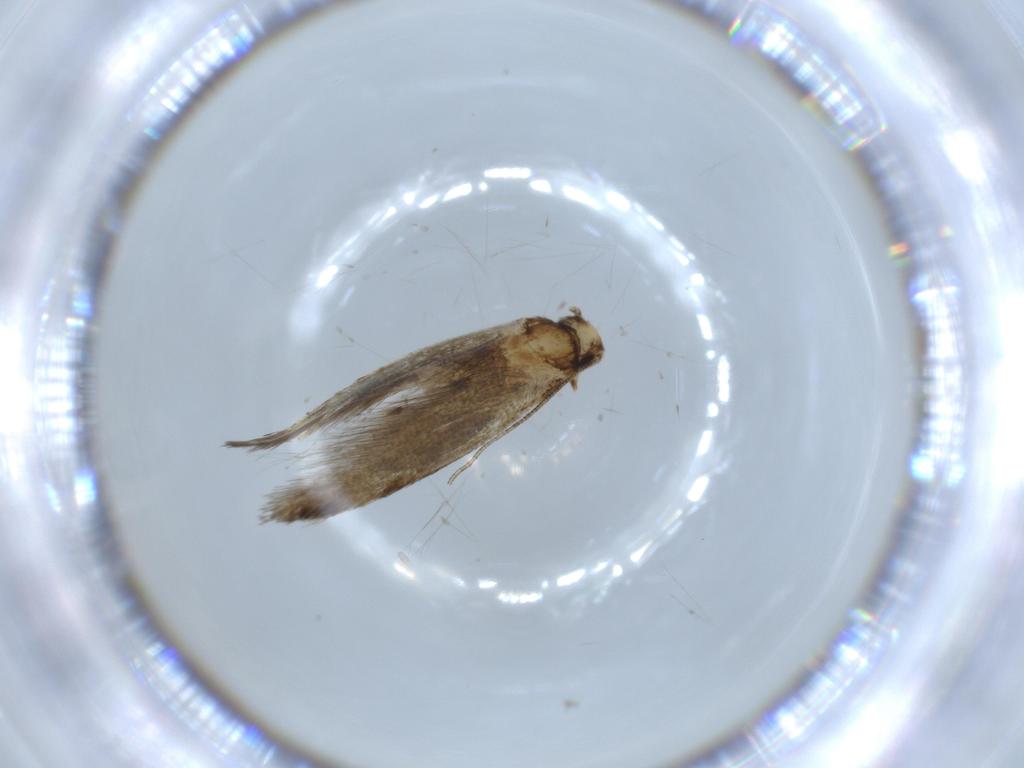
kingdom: Animalia
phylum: Arthropoda
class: Insecta
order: Lepidoptera
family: Tineidae
